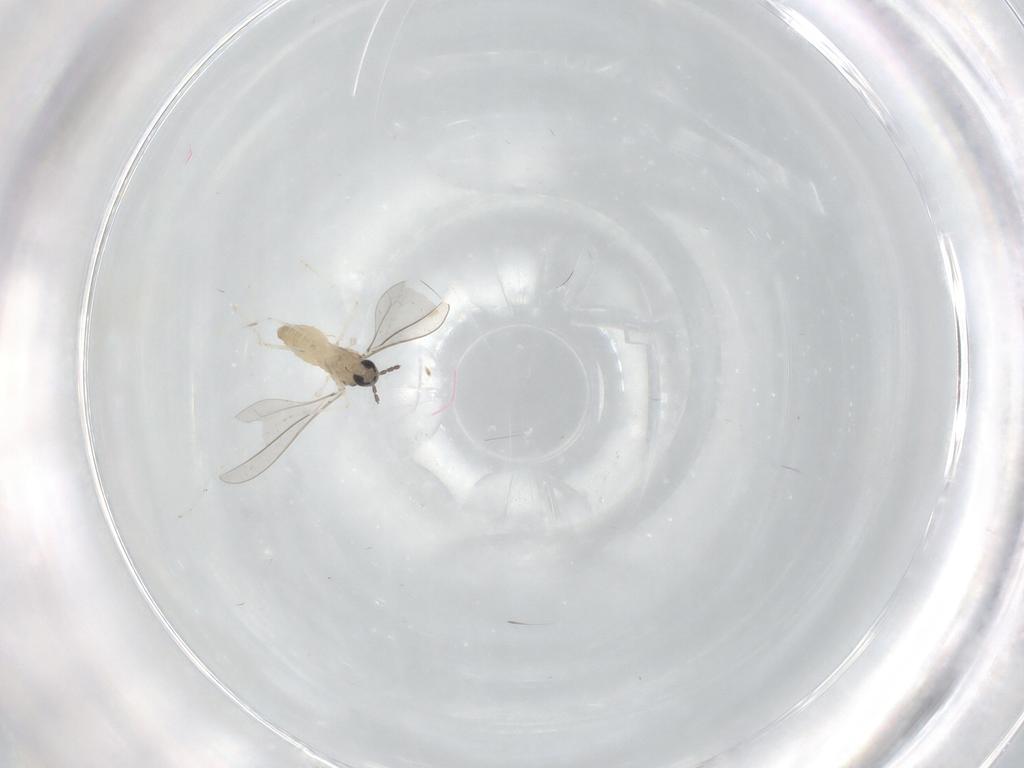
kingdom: Animalia
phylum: Arthropoda
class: Insecta
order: Diptera
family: Cecidomyiidae
